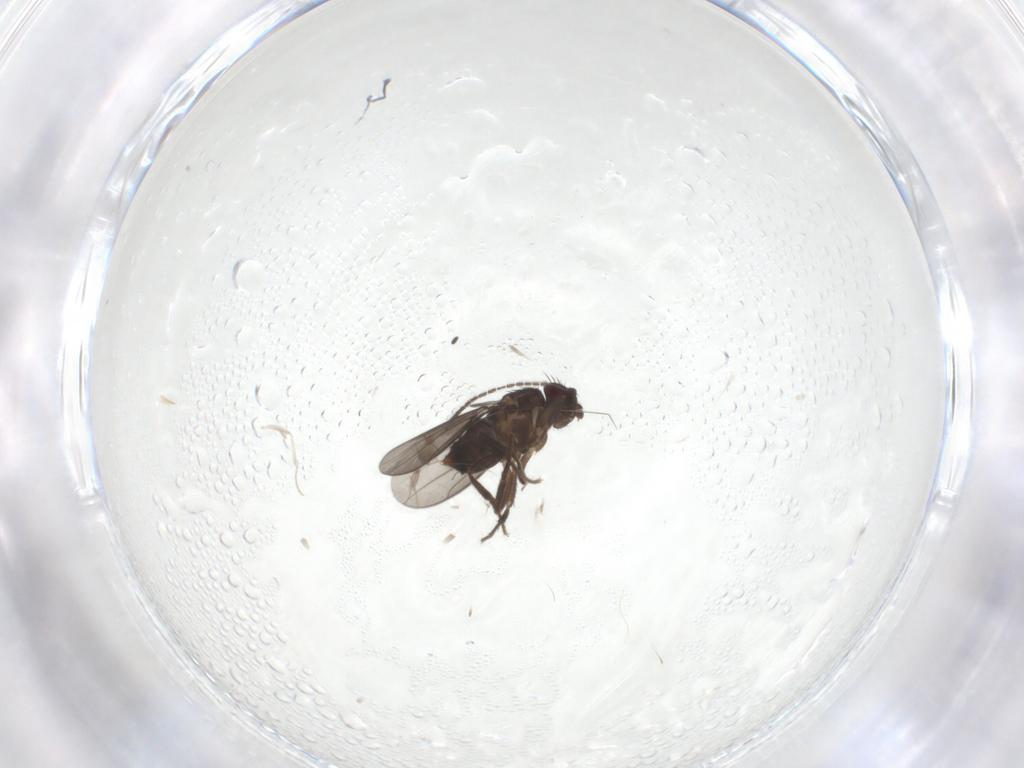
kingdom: Animalia
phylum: Arthropoda
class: Insecta
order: Diptera
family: Sphaeroceridae
